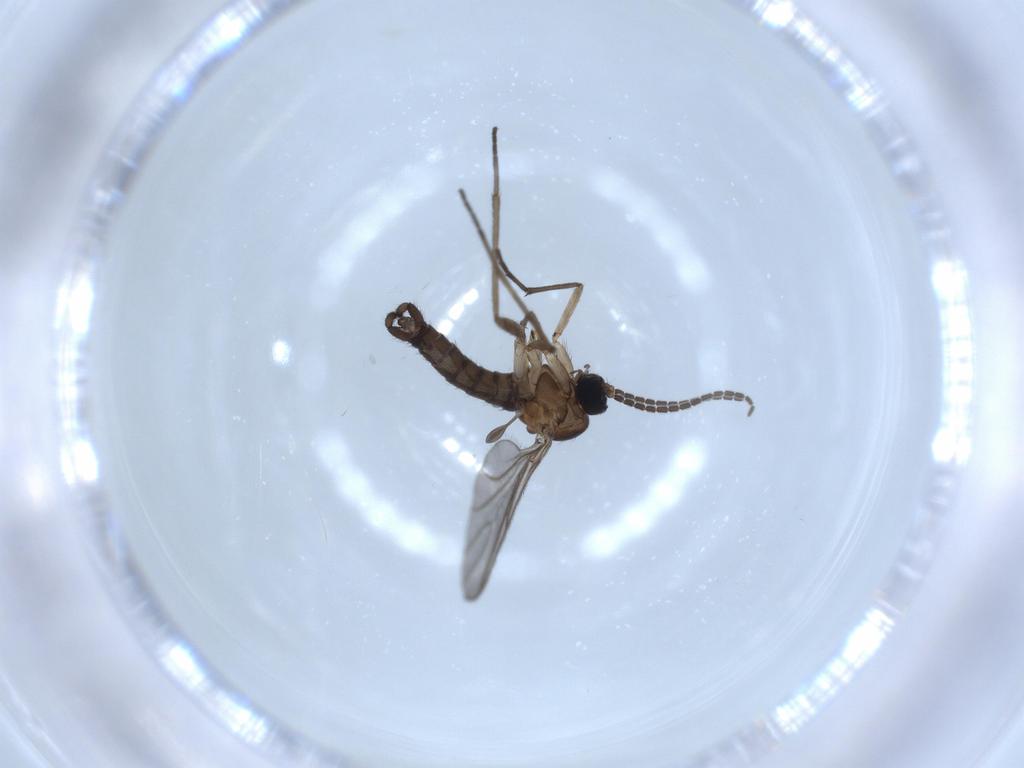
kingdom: Animalia
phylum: Arthropoda
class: Insecta
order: Diptera
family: Sciaridae
